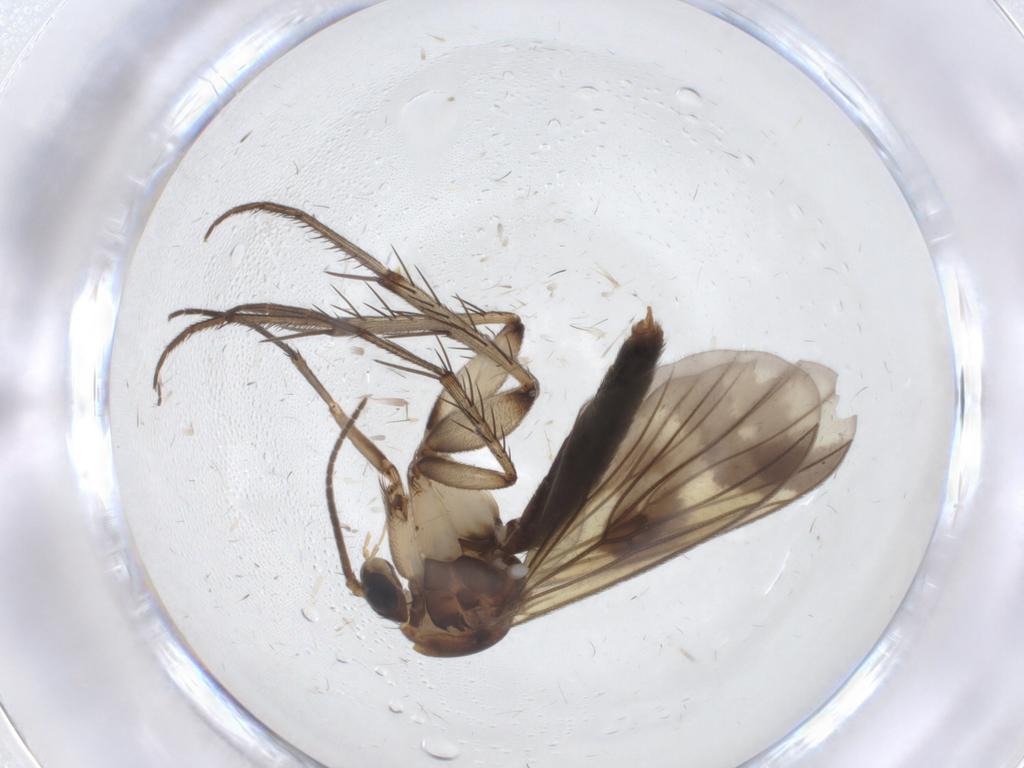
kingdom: Animalia
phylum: Arthropoda
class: Insecta
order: Diptera
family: Sciaridae
